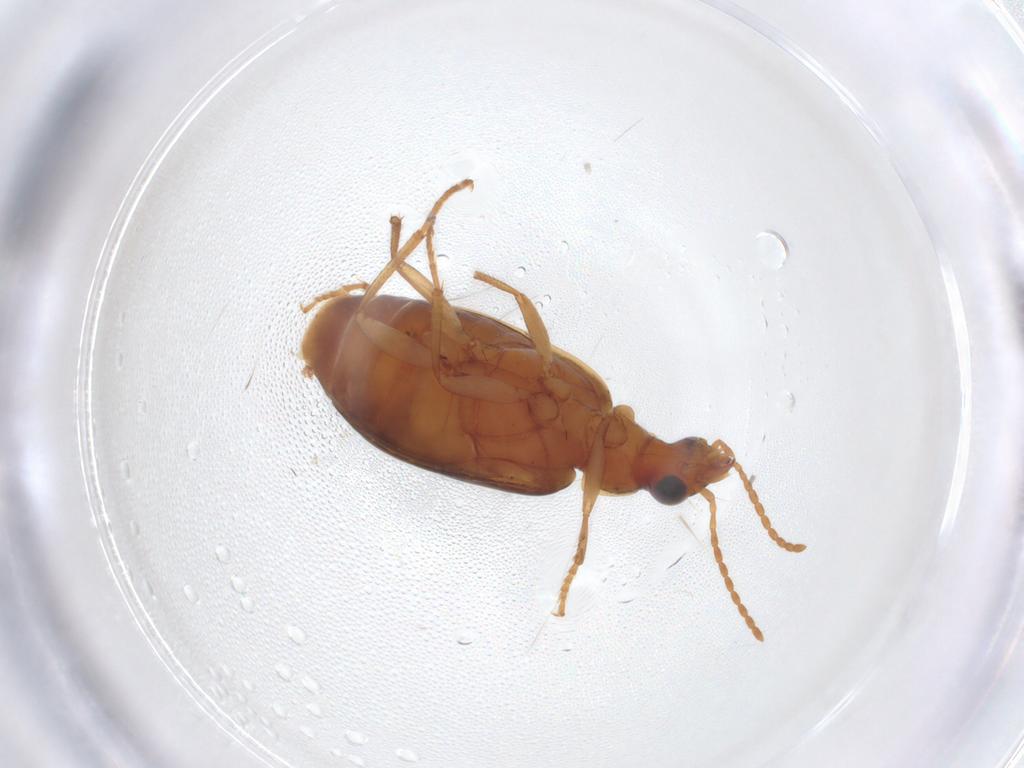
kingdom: Animalia
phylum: Arthropoda
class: Insecta
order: Coleoptera
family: Carabidae
